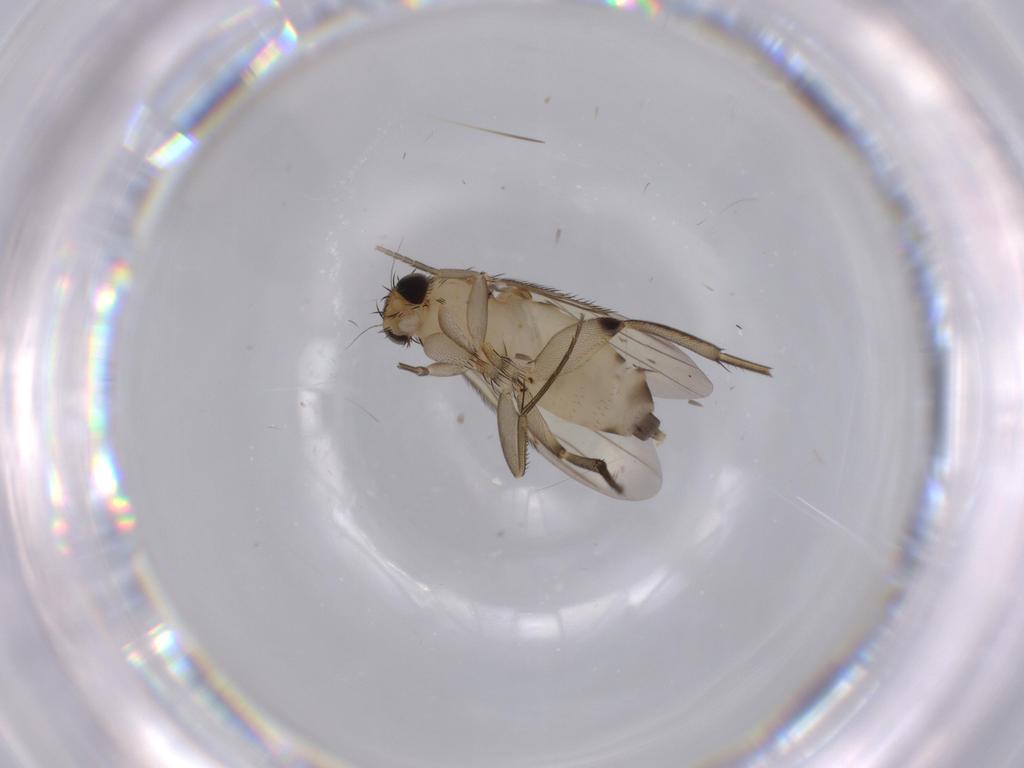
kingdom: Animalia
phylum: Arthropoda
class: Insecta
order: Diptera
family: Phoridae
